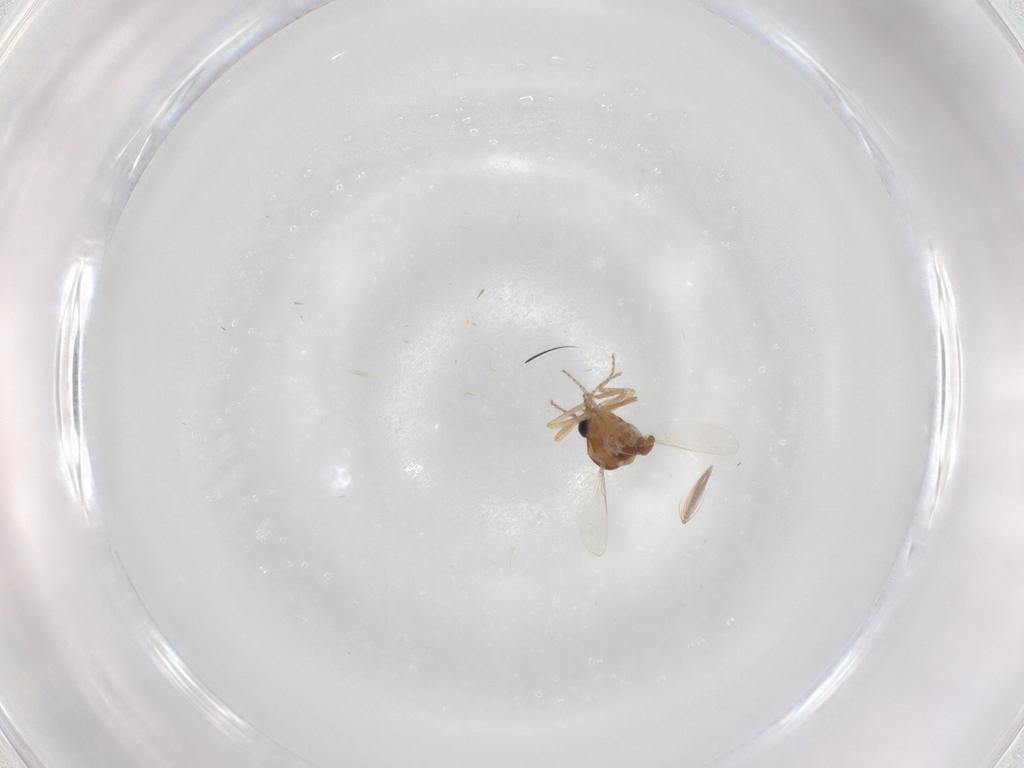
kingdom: Animalia
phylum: Arthropoda
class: Insecta
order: Diptera
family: Ceratopogonidae
